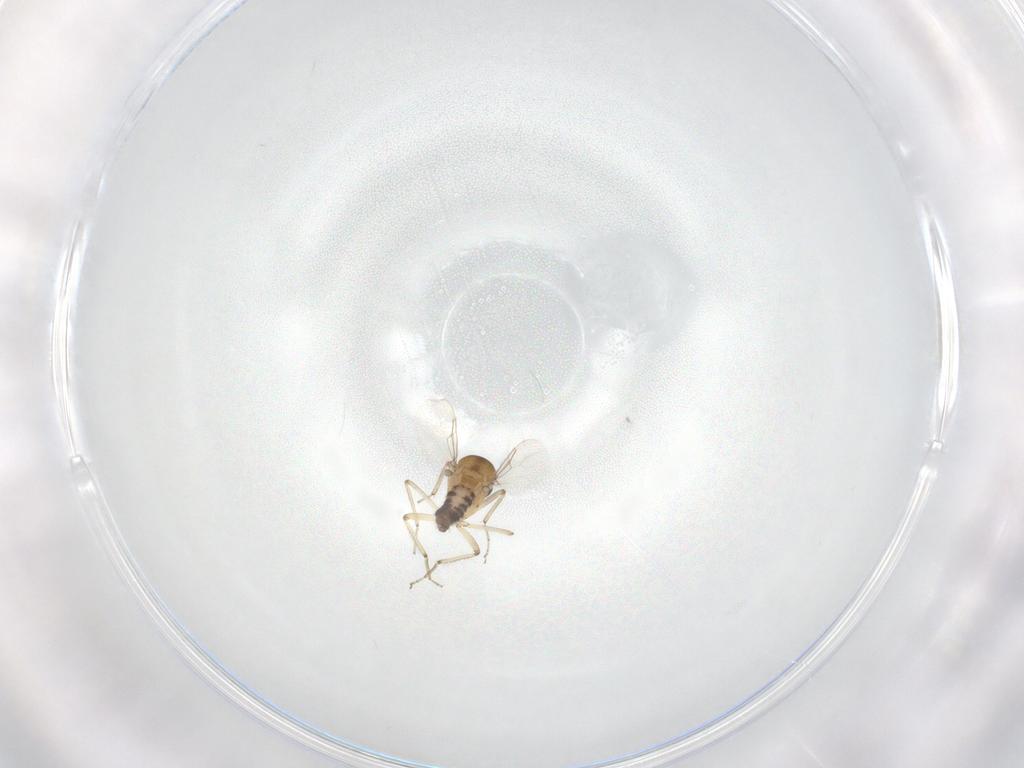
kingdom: Animalia
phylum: Arthropoda
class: Insecta
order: Diptera
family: Ceratopogonidae
